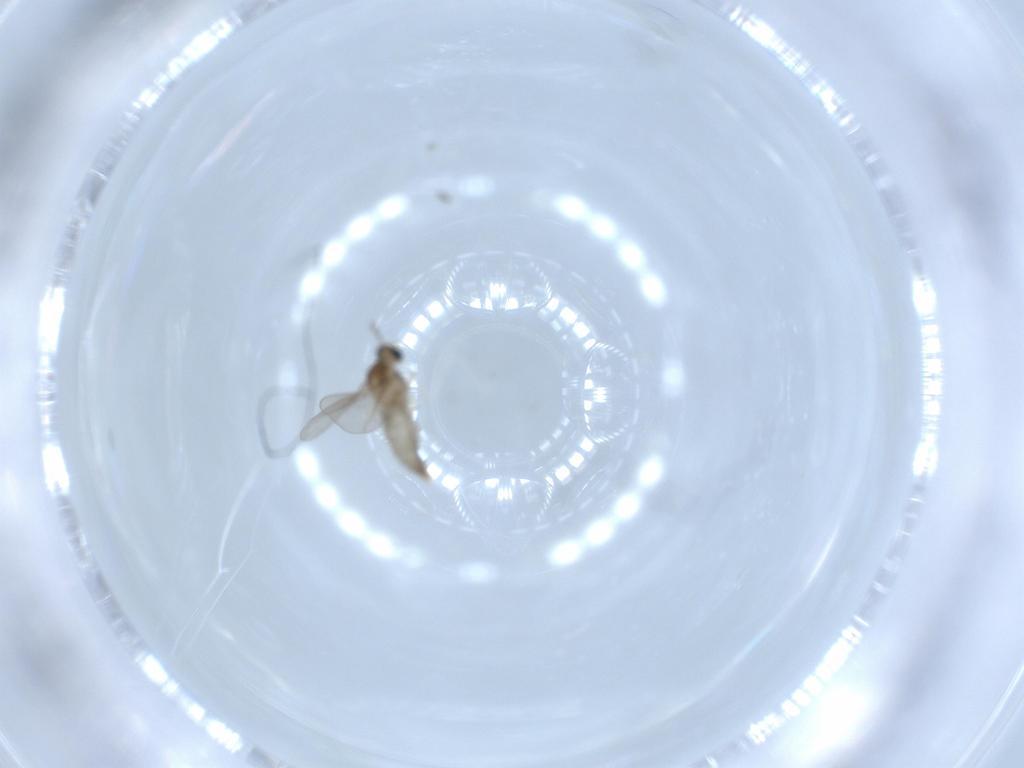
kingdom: Animalia
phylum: Arthropoda
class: Insecta
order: Diptera
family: Muscidae
